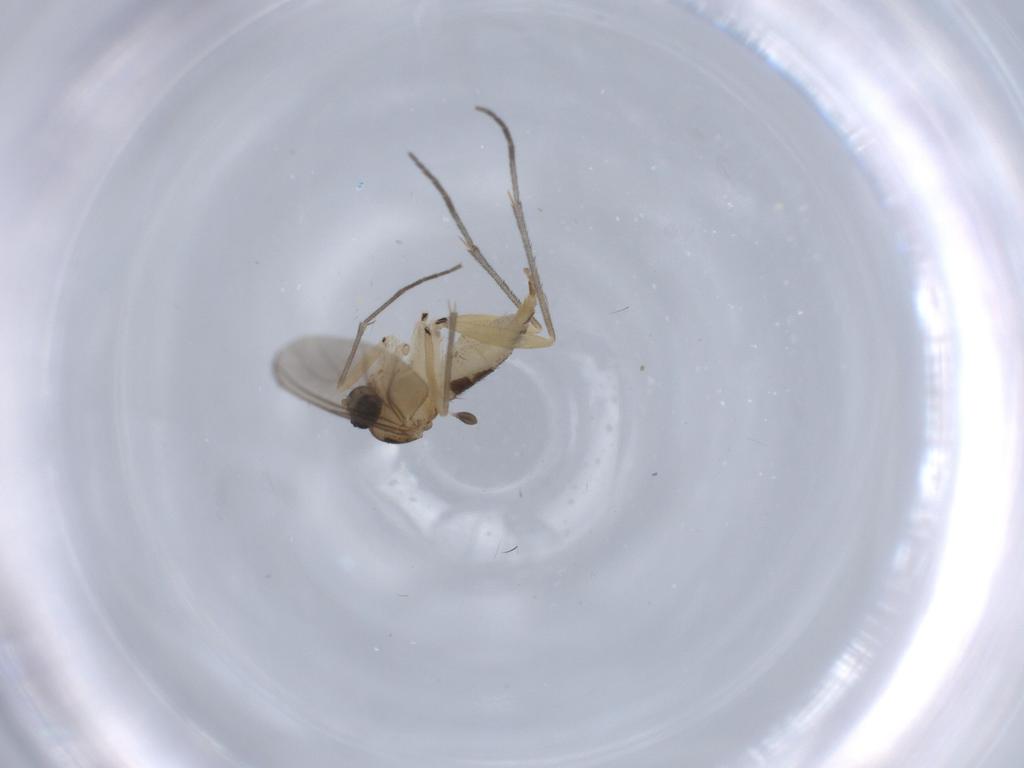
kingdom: Animalia
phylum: Arthropoda
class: Insecta
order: Diptera
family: Sciaridae
